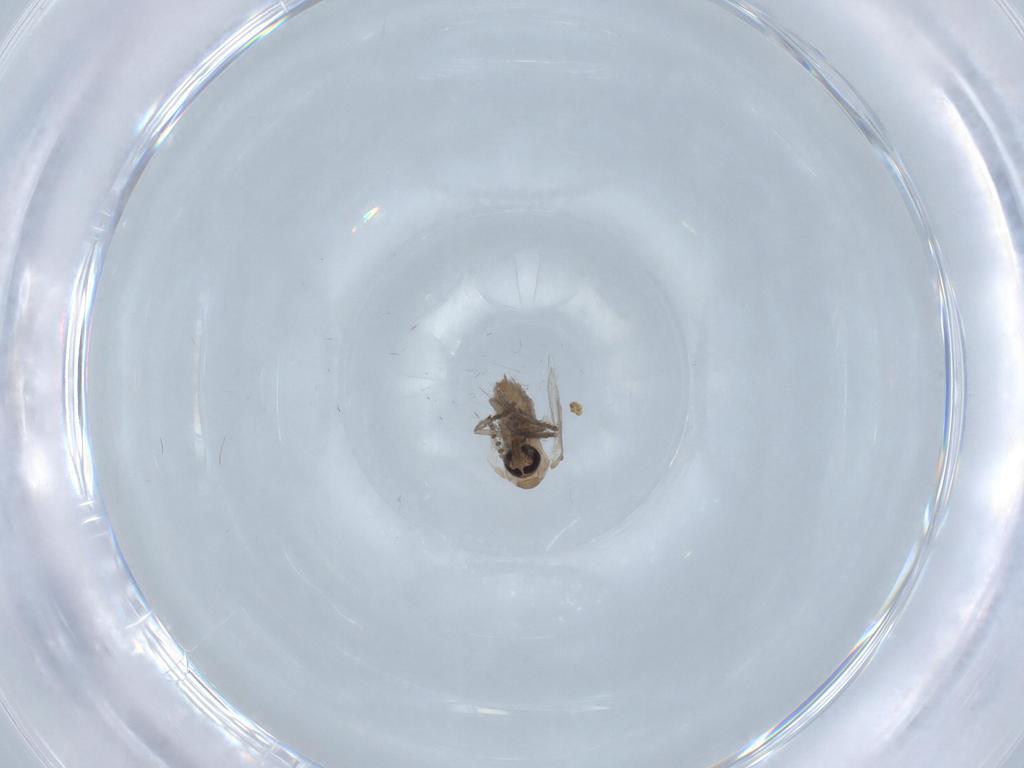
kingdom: Animalia
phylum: Arthropoda
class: Insecta
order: Diptera
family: Psychodidae
